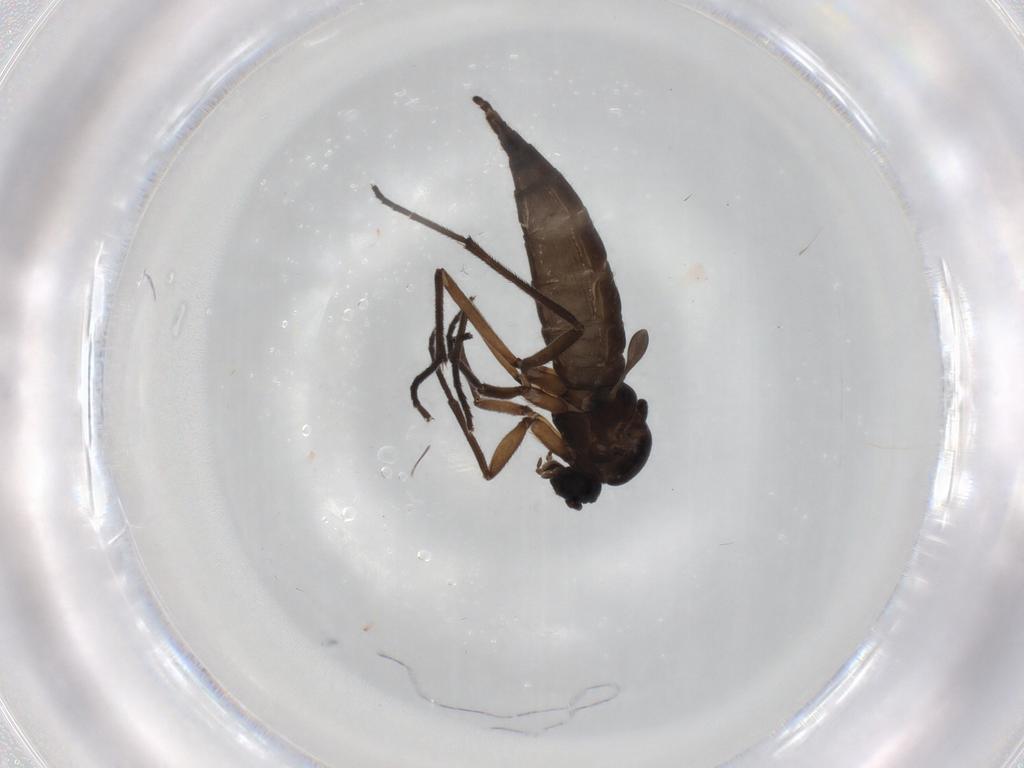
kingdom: Animalia
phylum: Arthropoda
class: Insecta
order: Diptera
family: Sciaridae
